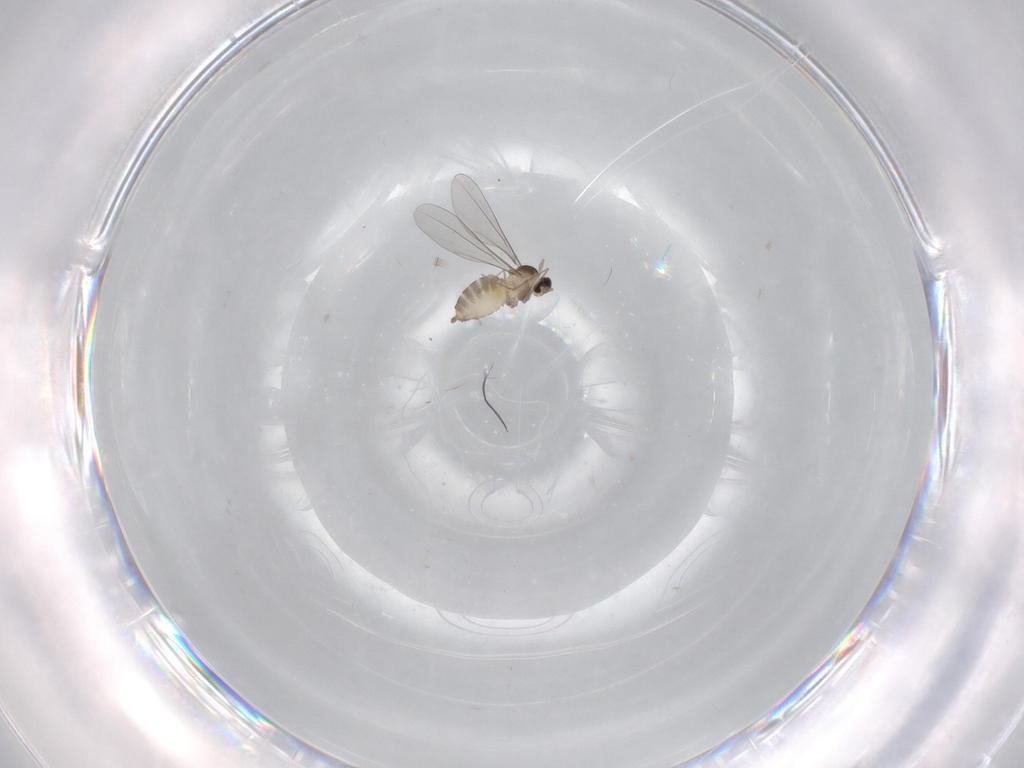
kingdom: Animalia
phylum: Arthropoda
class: Insecta
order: Diptera
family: Cecidomyiidae
